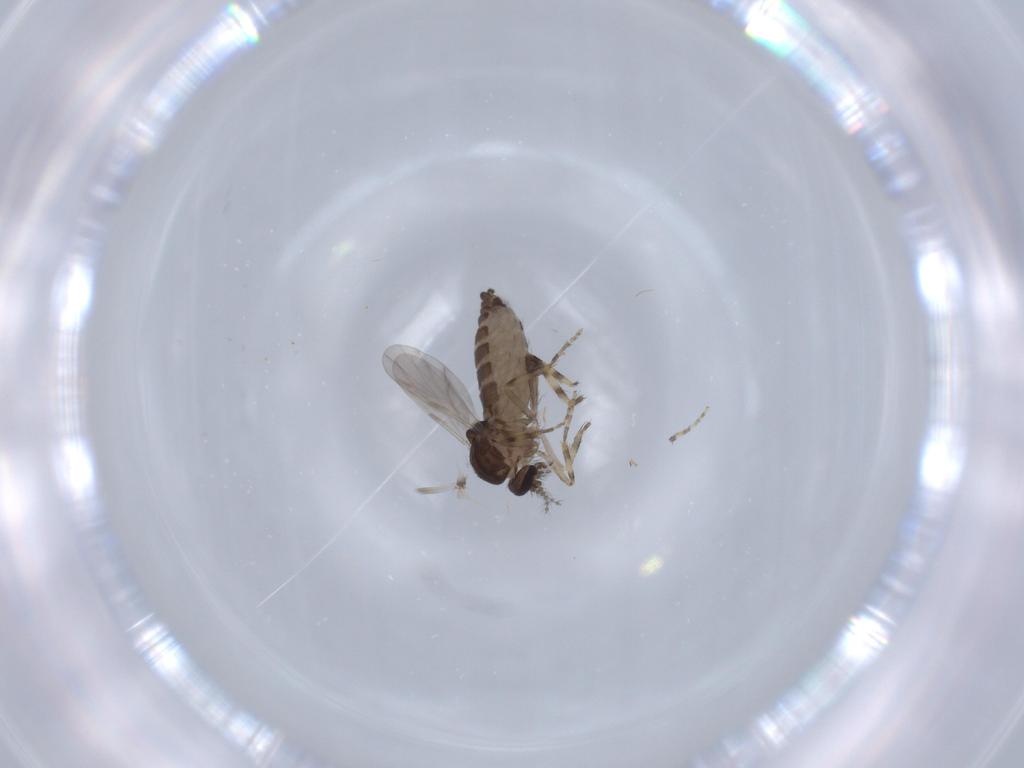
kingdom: Animalia
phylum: Arthropoda
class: Insecta
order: Diptera
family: Ceratopogonidae
